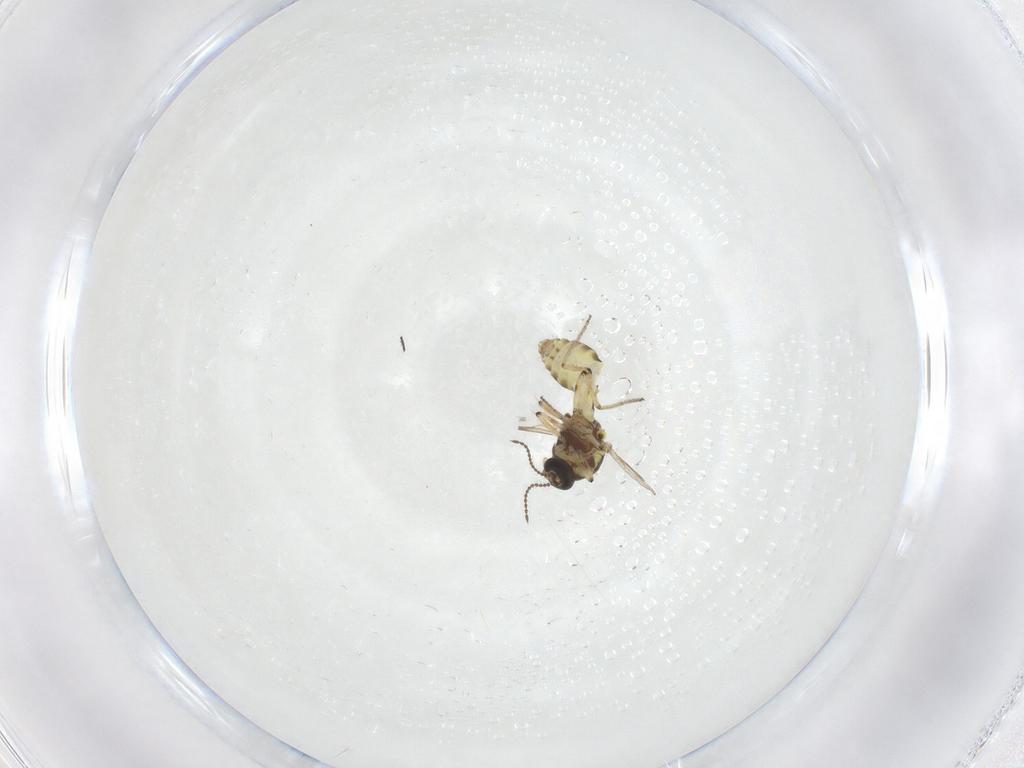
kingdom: Animalia
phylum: Arthropoda
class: Insecta
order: Diptera
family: Ceratopogonidae
